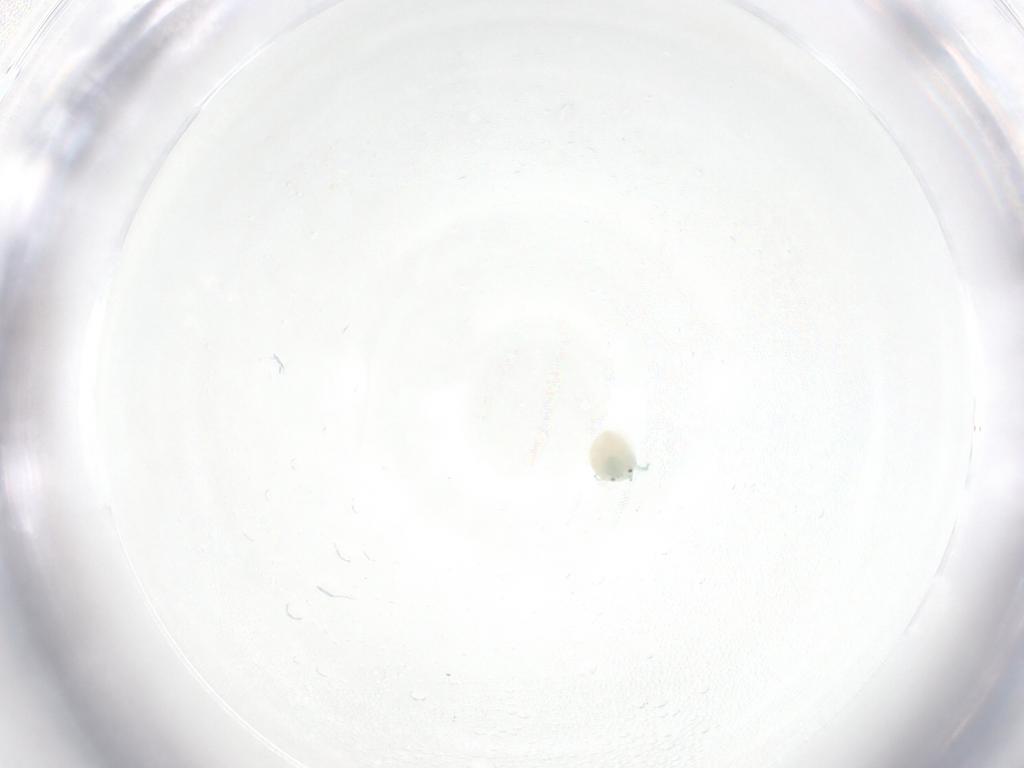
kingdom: Animalia
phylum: Arthropoda
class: Arachnida
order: Trombidiformes
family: Arrenuridae
